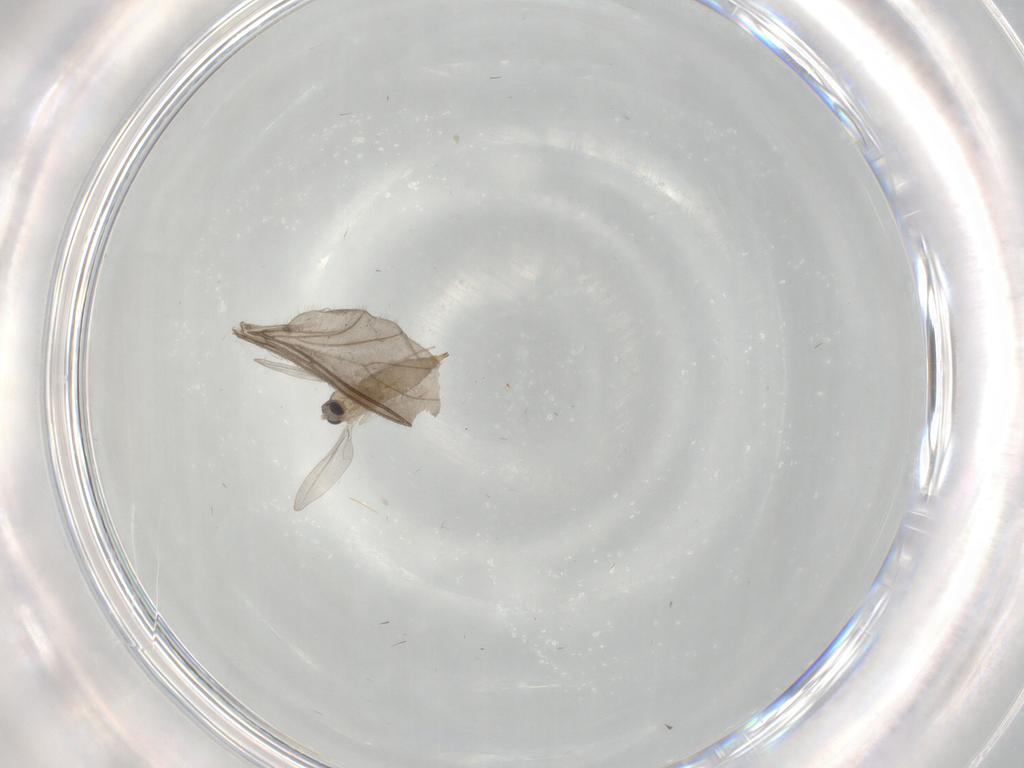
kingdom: Animalia
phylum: Arthropoda
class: Insecta
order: Diptera
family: Cecidomyiidae
